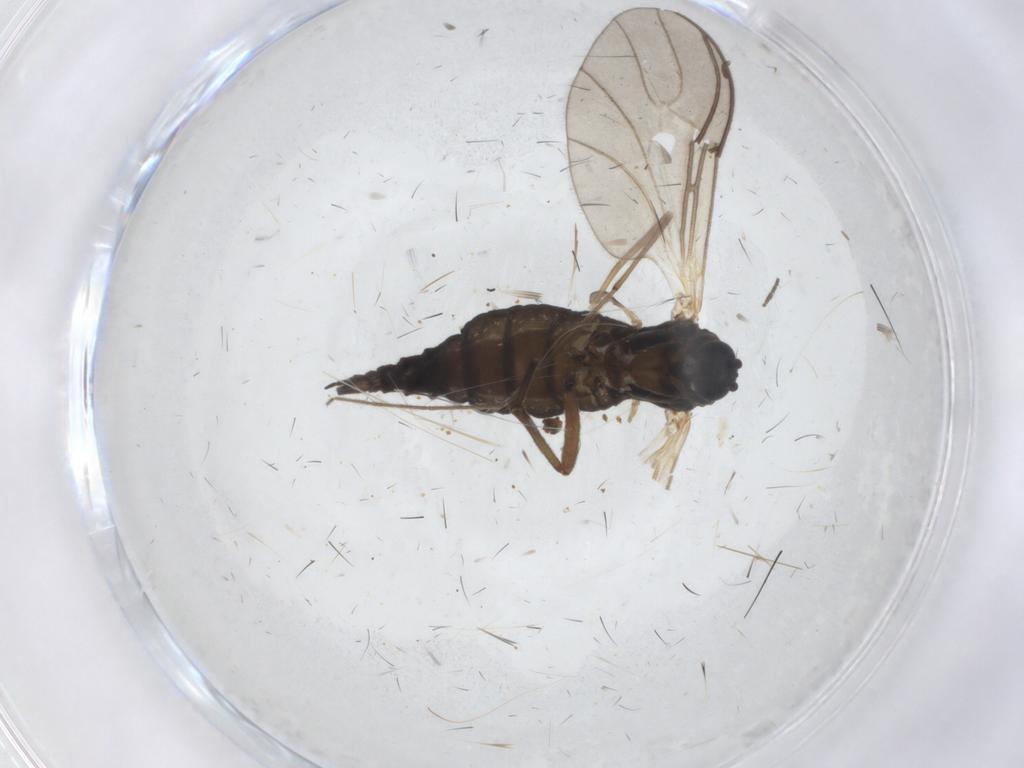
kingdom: Animalia
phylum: Arthropoda
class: Insecta
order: Diptera
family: Sciaridae
